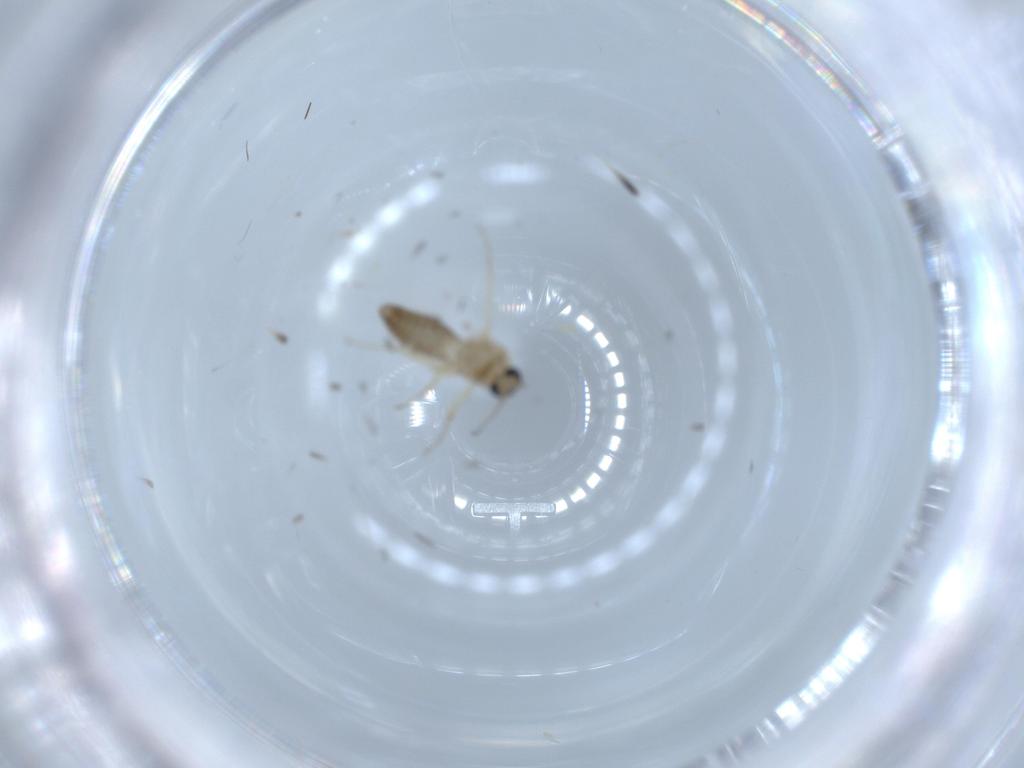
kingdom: Animalia
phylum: Arthropoda
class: Insecta
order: Diptera
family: Ceratopogonidae
